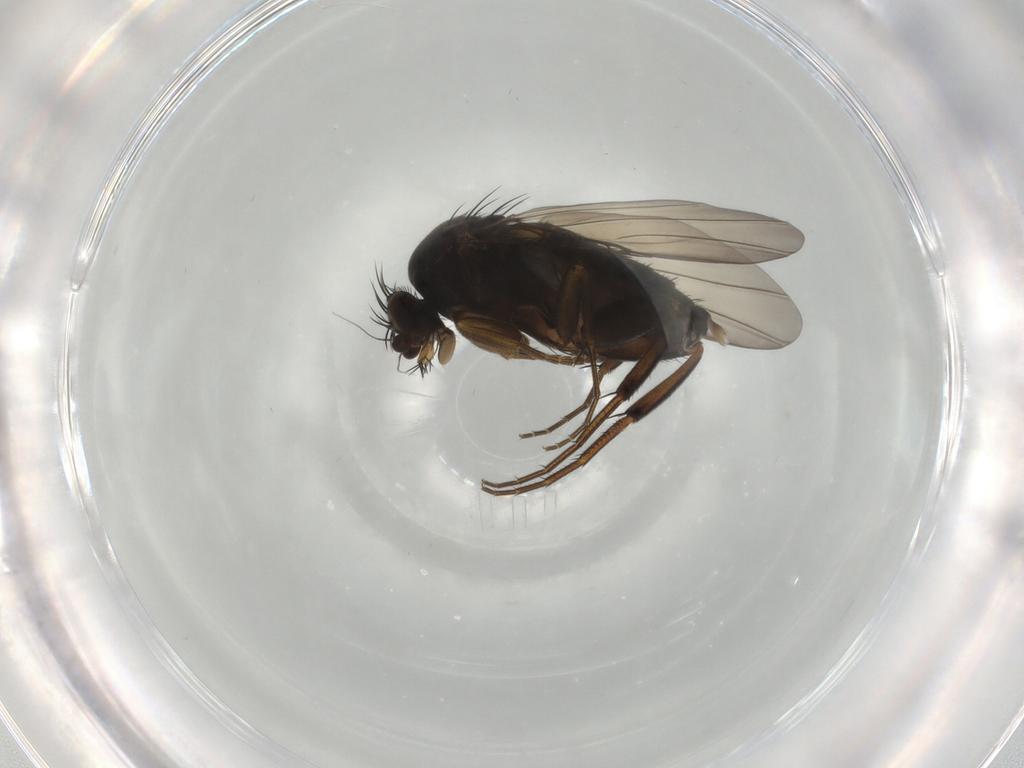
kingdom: Animalia
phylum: Arthropoda
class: Insecta
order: Diptera
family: Phoridae
